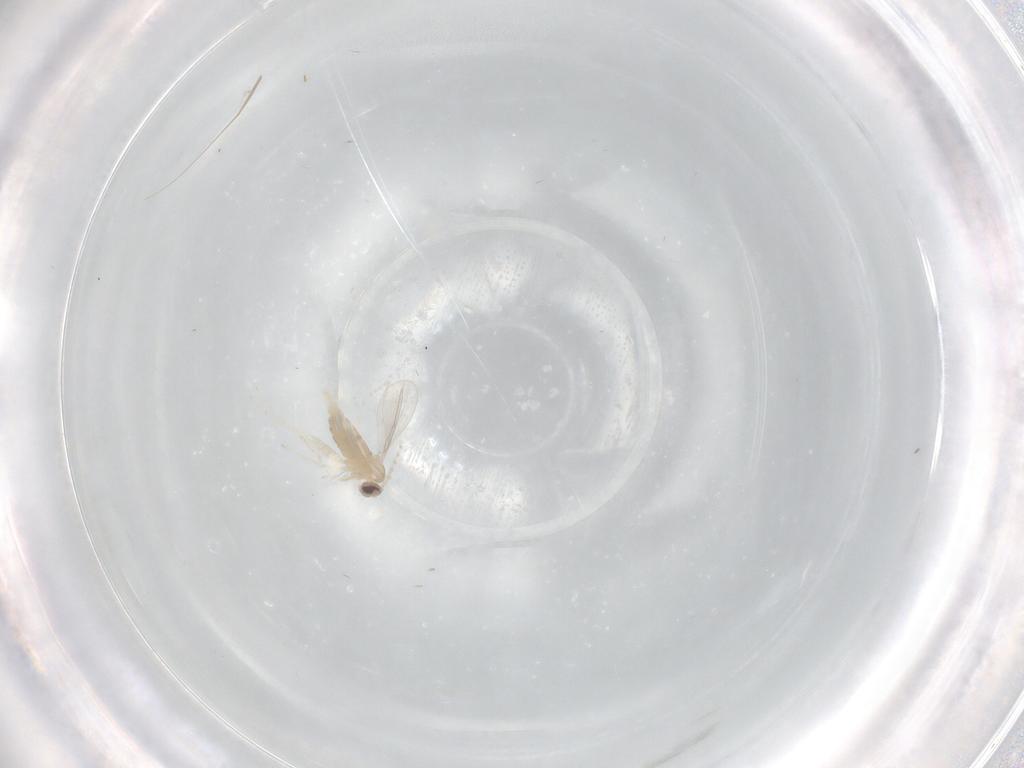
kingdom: Animalia
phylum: Arthropoda
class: Insecta
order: Diptera
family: Cecidomyiidae
